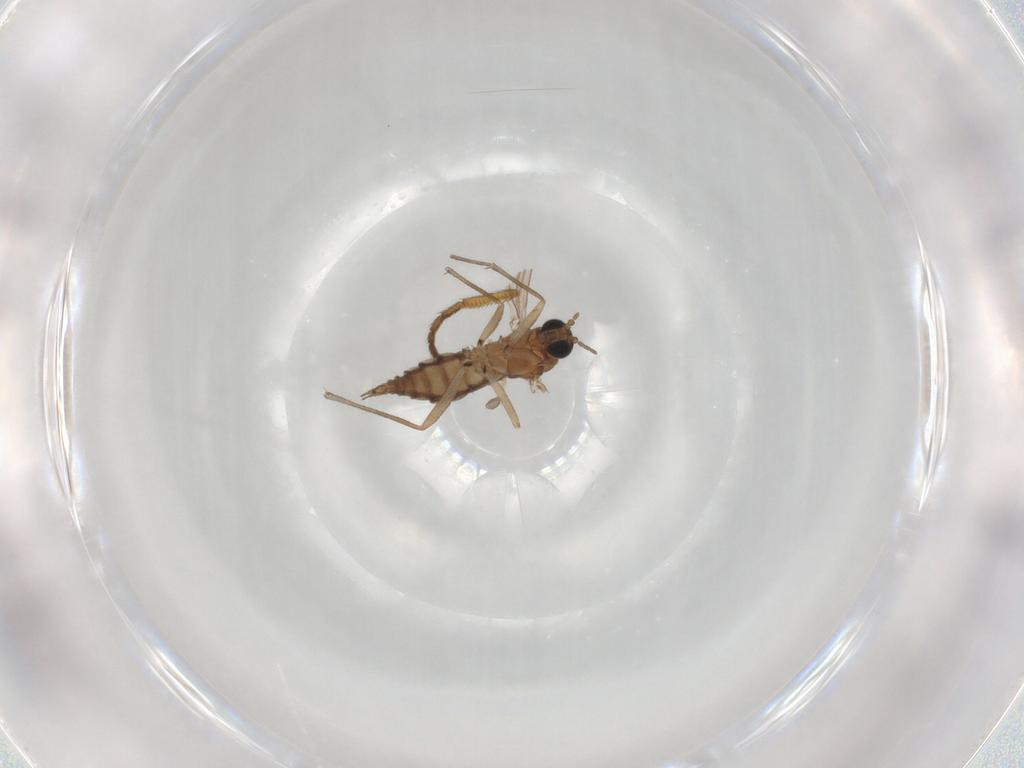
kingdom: Animalia
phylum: Arthropoda
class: Insecta
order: Diptera
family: Sciaridae
